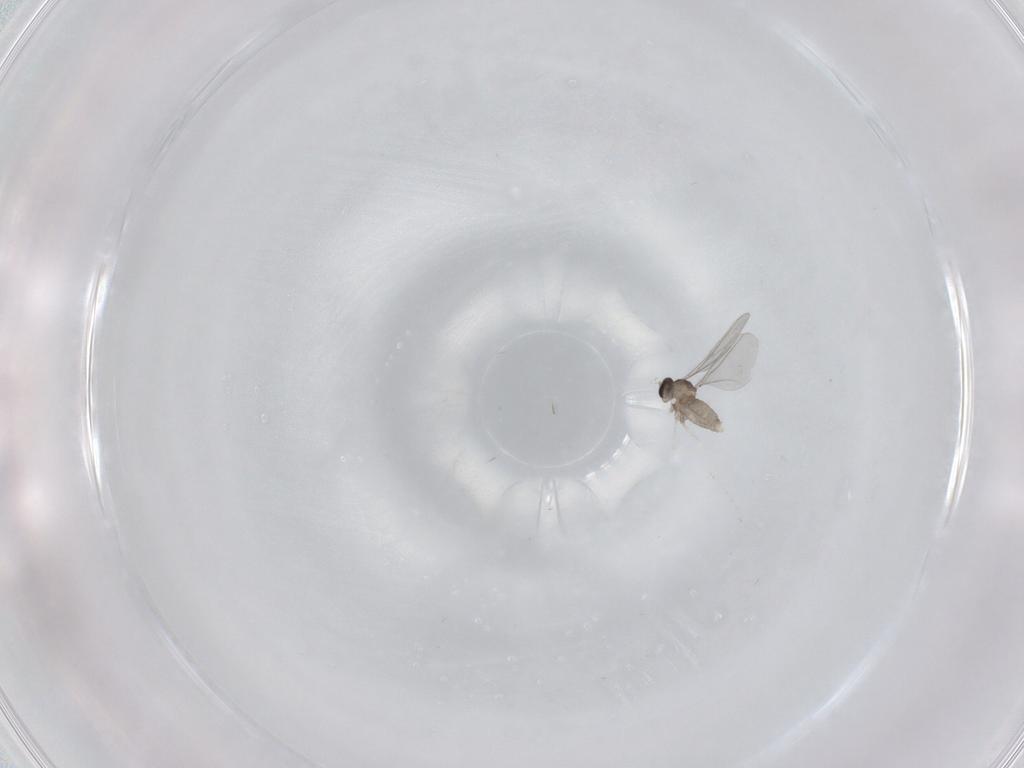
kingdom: Animalia
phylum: Arthropoda
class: Insecta
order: Diptera
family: Cecidomyiidae
